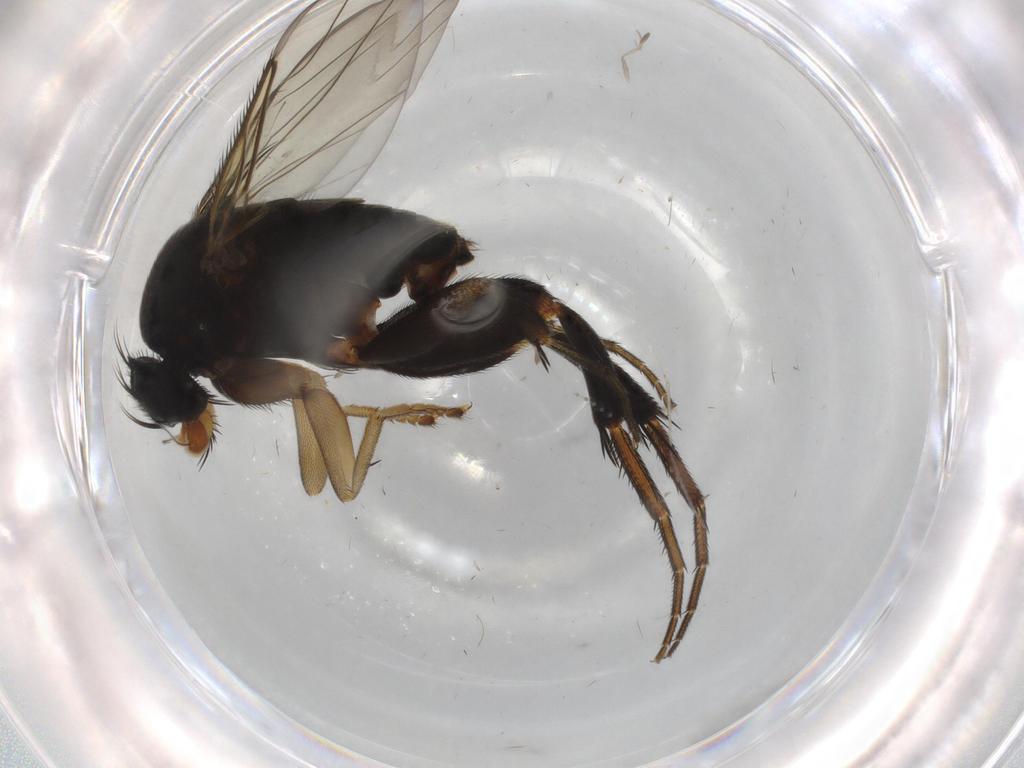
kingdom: Animalia
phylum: Arthropoda
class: Insecta
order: Diptera
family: Phoridae
